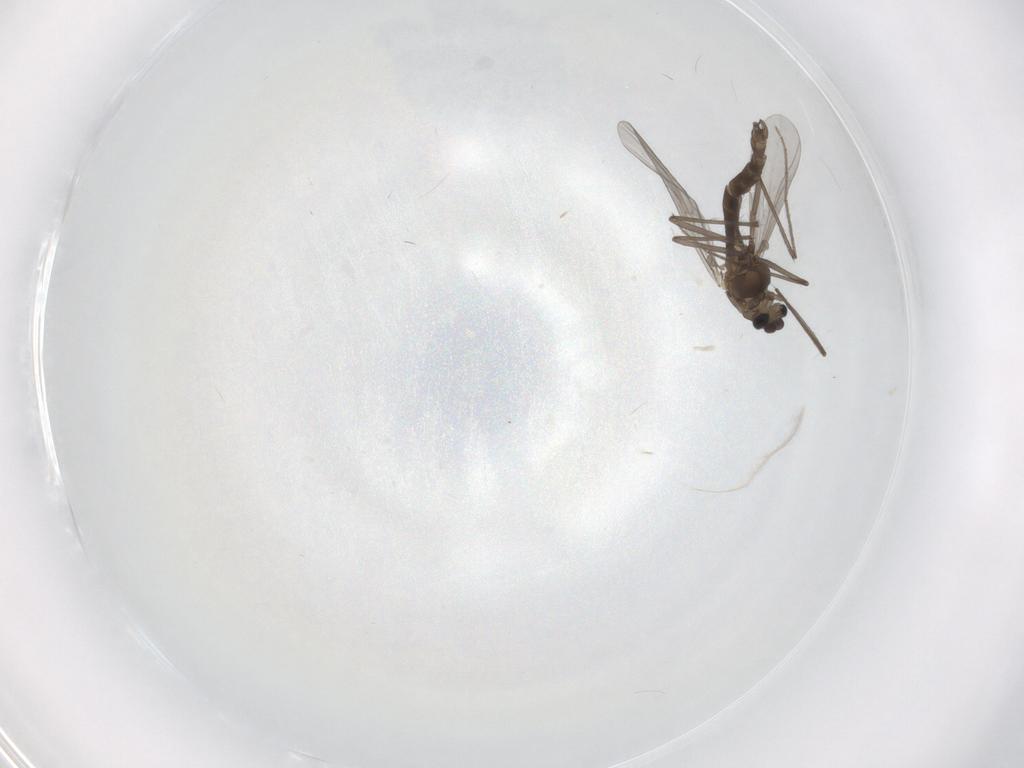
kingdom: Animalia
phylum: Arthropoda
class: Insecta
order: Diptera
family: Chironomidae
